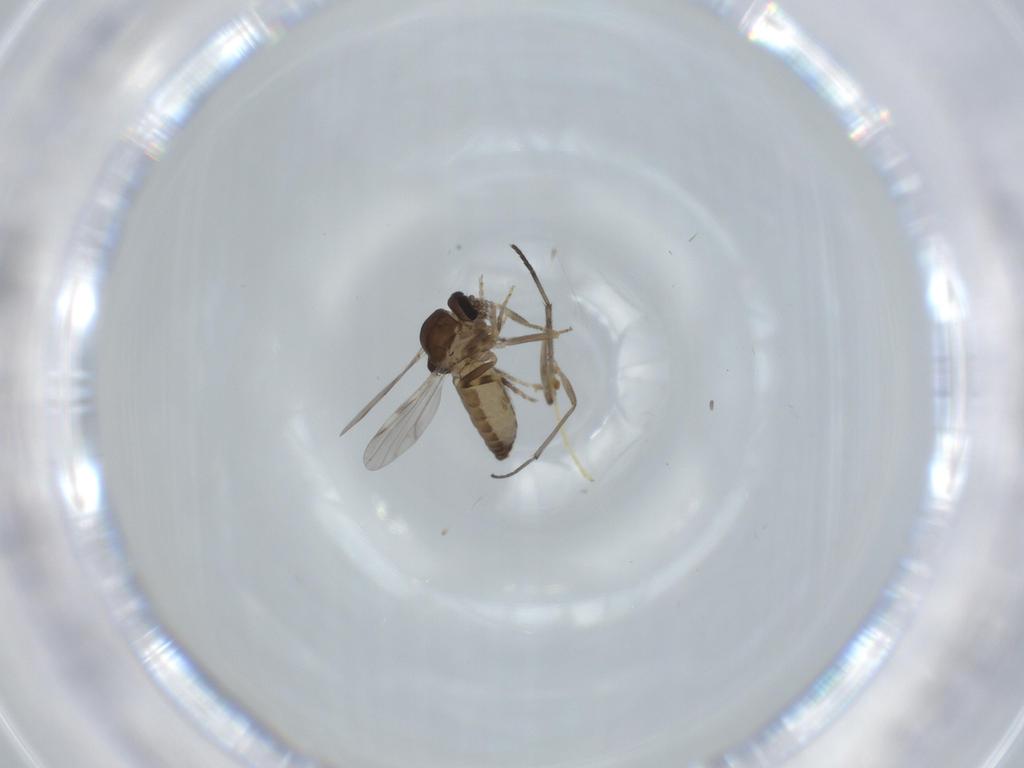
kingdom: Animalia
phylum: Arthropoda
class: Insecta
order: Diptera
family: Ceratopogonidae
